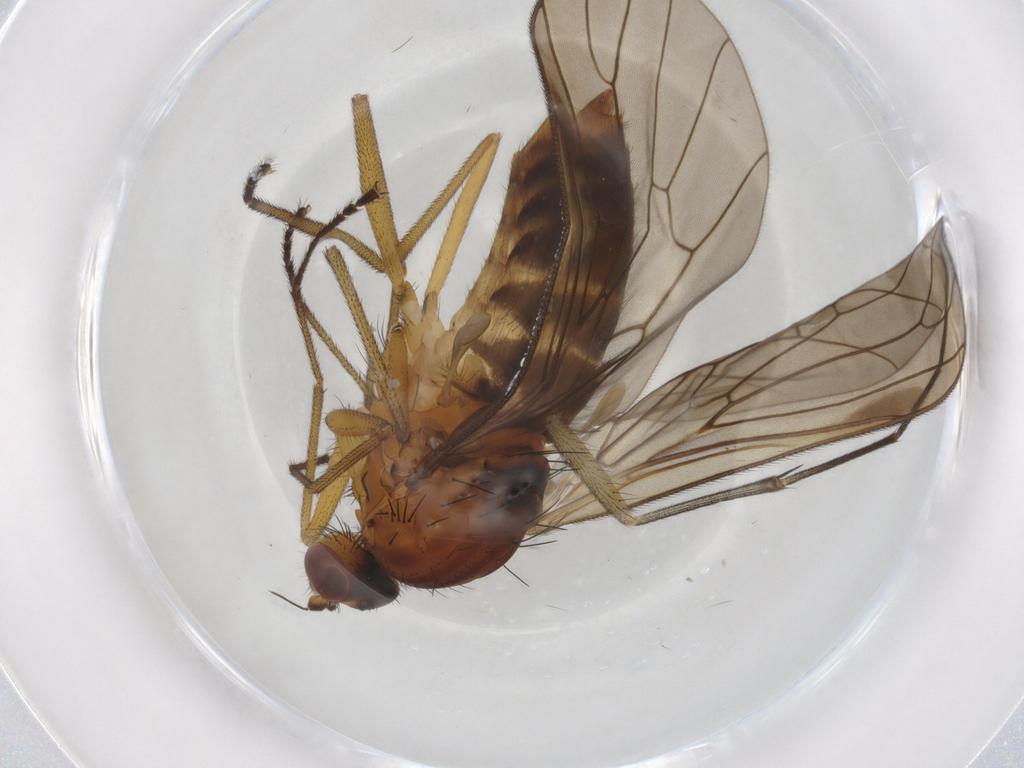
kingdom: Animalia
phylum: Arthropoda
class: Insecta
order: Diptera
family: Brachystomatidae
